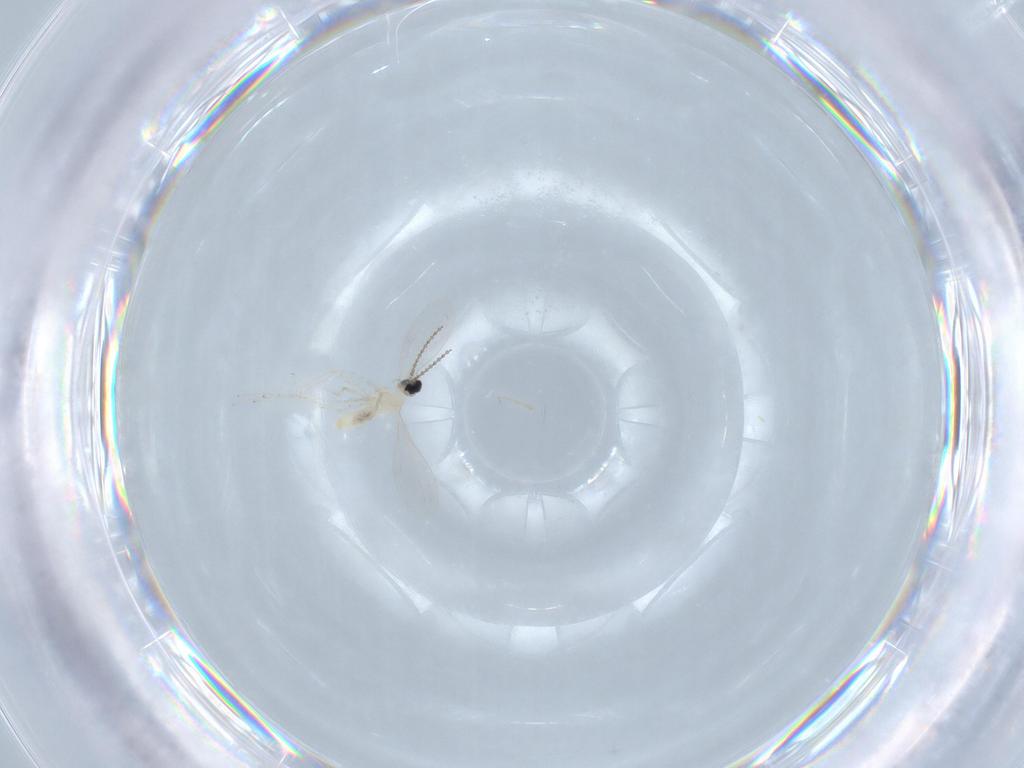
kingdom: Animalia
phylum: Arthropoda
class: Insecta
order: Diptera
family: Cecidomyiidae
